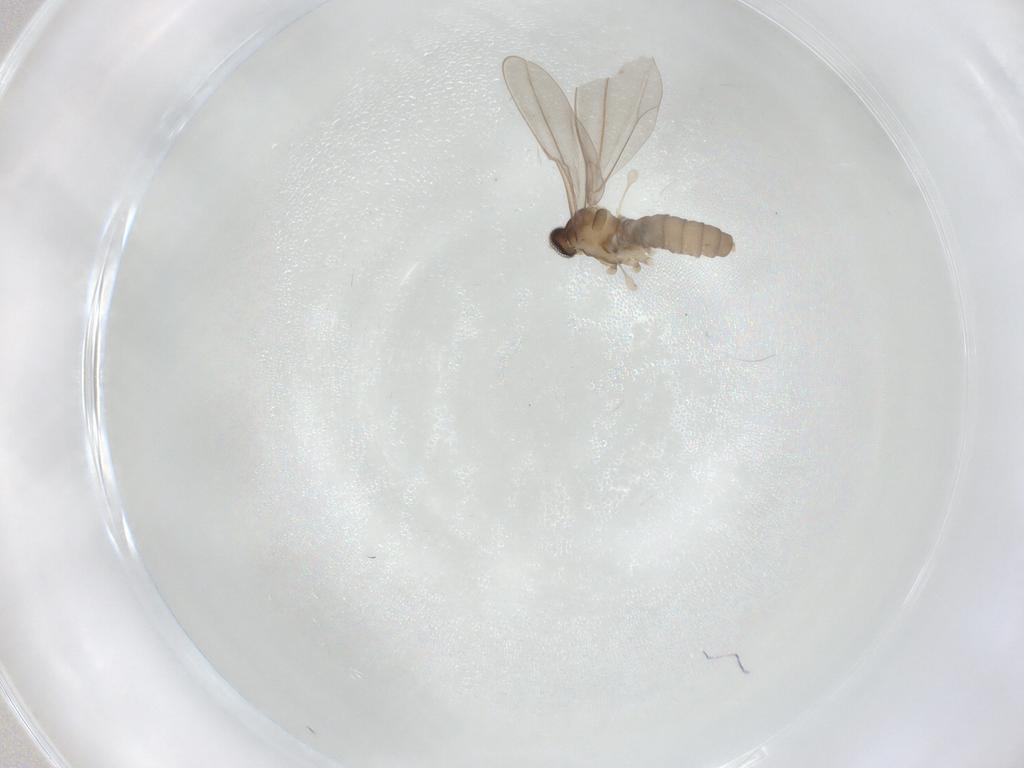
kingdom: Animalia
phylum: Arthropoda
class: Insecta
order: Diptera
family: Cecidomyiidae
